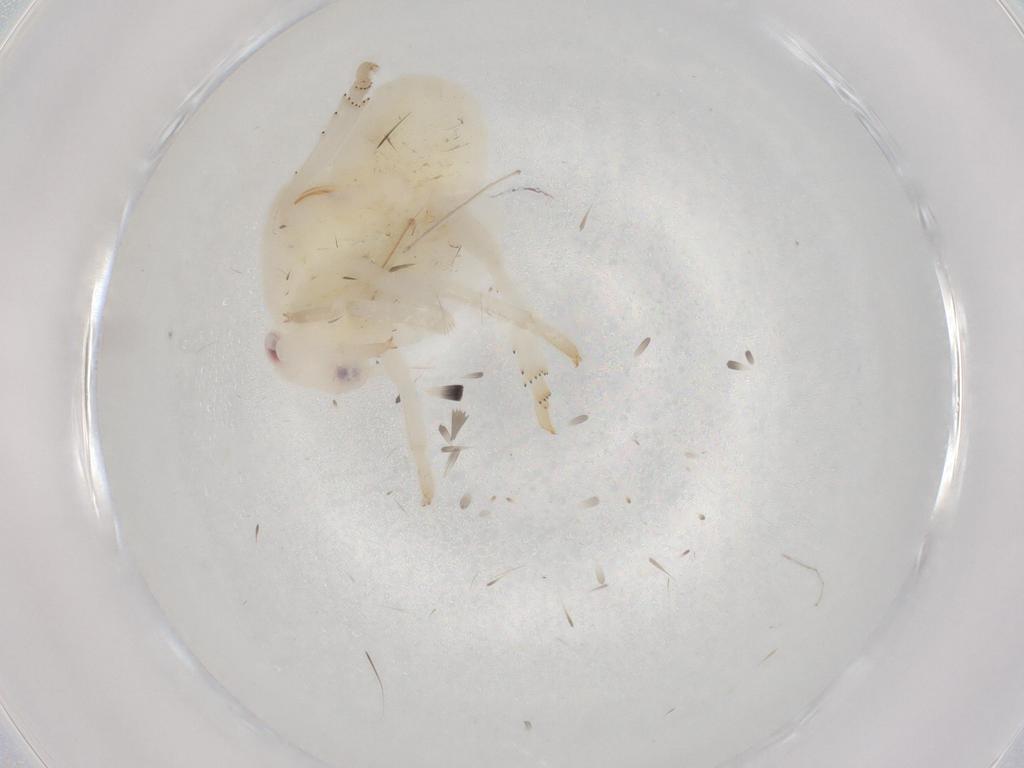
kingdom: Animalia
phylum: Arthropoda
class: Insecta
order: Hemiptera
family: Flatidae
